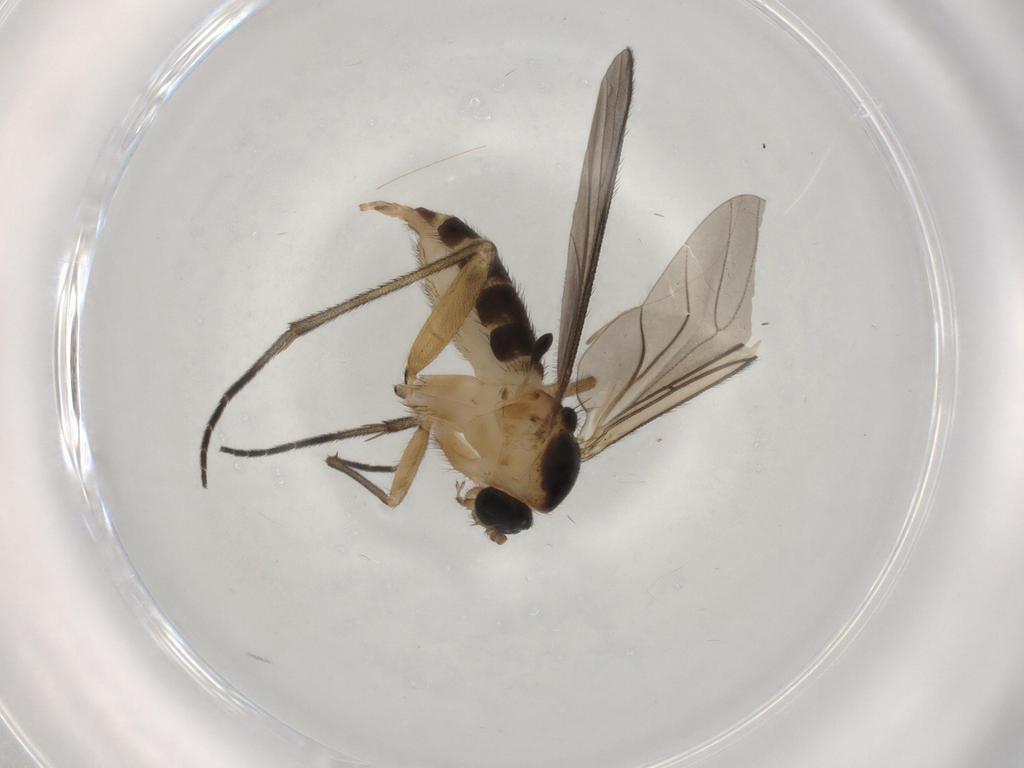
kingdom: Animalia
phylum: Arthropoda
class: Insecta
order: Diptera
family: Sciaridae
